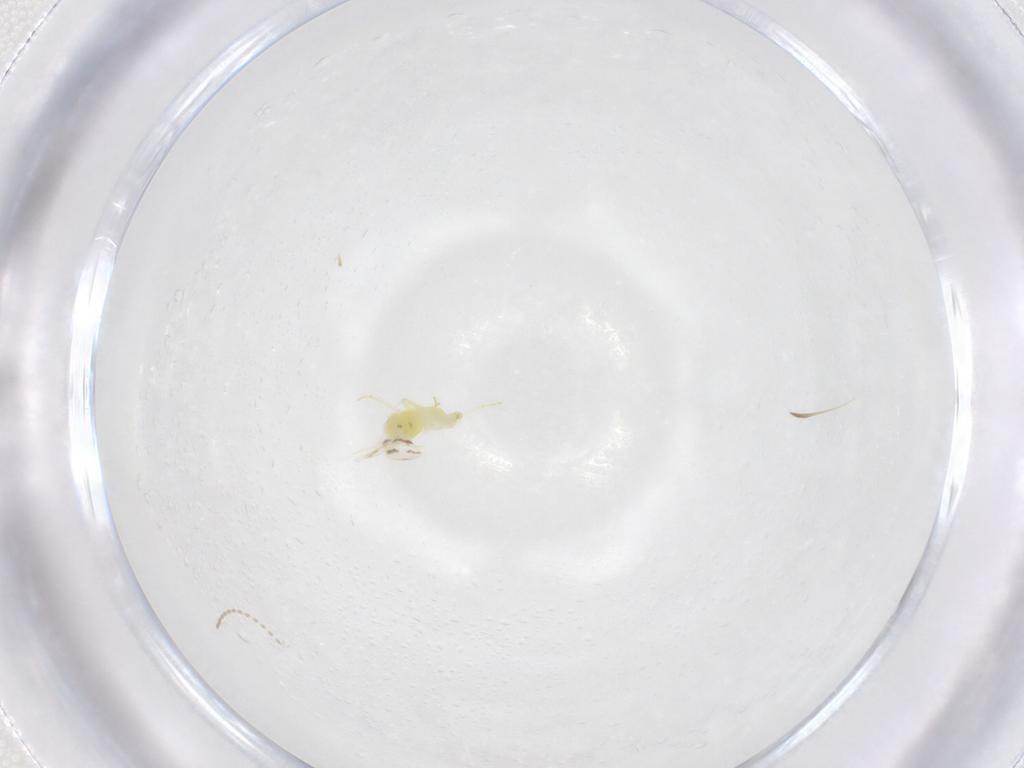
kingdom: Animalia
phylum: Arthropoda
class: Insecta
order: Hemiptera
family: Aleyrodidae
